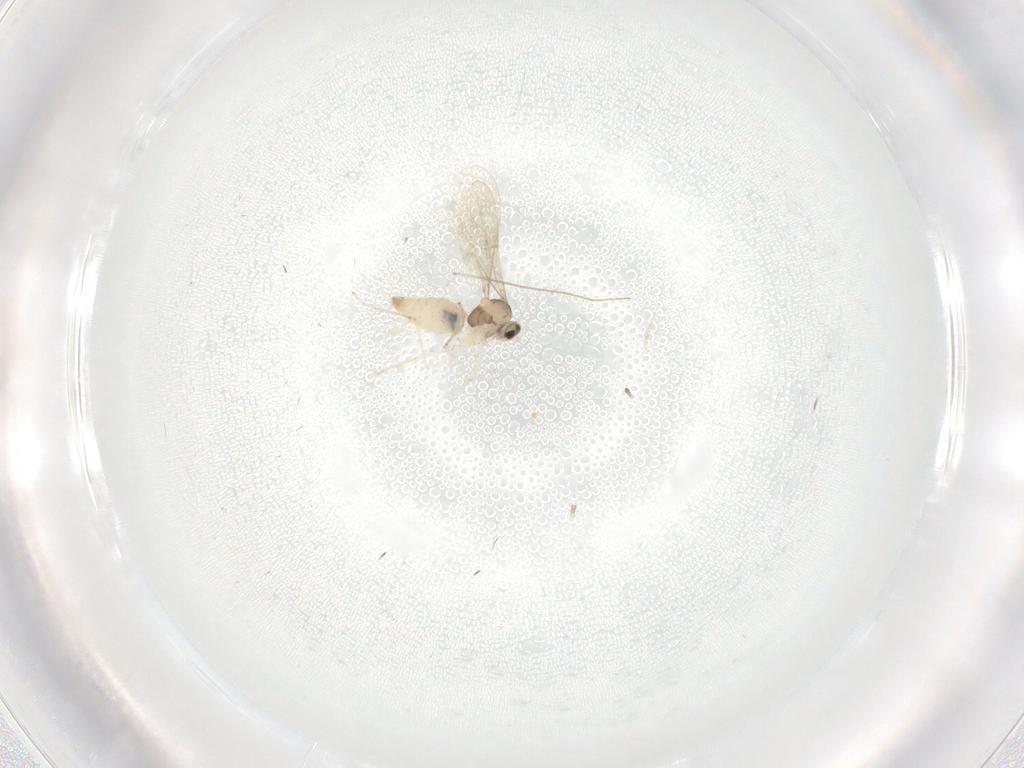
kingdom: Animalia
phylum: Arthropoda
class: Insecta
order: Diptera
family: Cecidomyiidae
